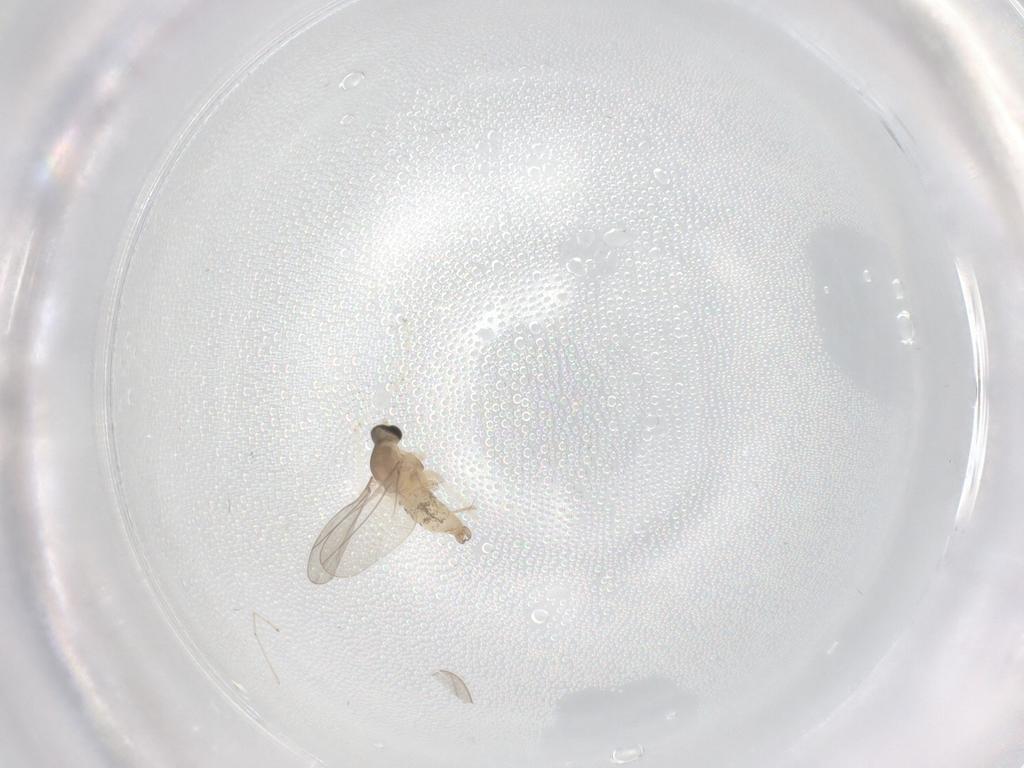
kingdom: Animalia
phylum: Arthropoda
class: Insecta
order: Diptera
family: Cecidomyiidae
